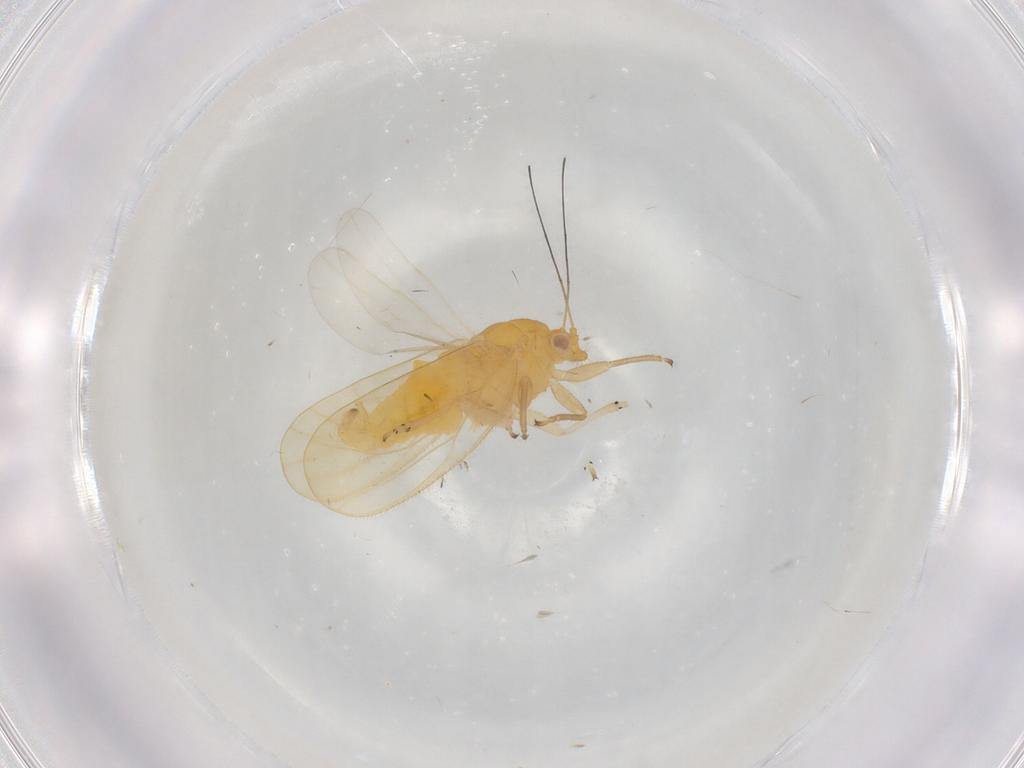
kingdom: Animalia
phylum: Arthropoda
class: Insecta
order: Hemiptera
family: Psyllidae
